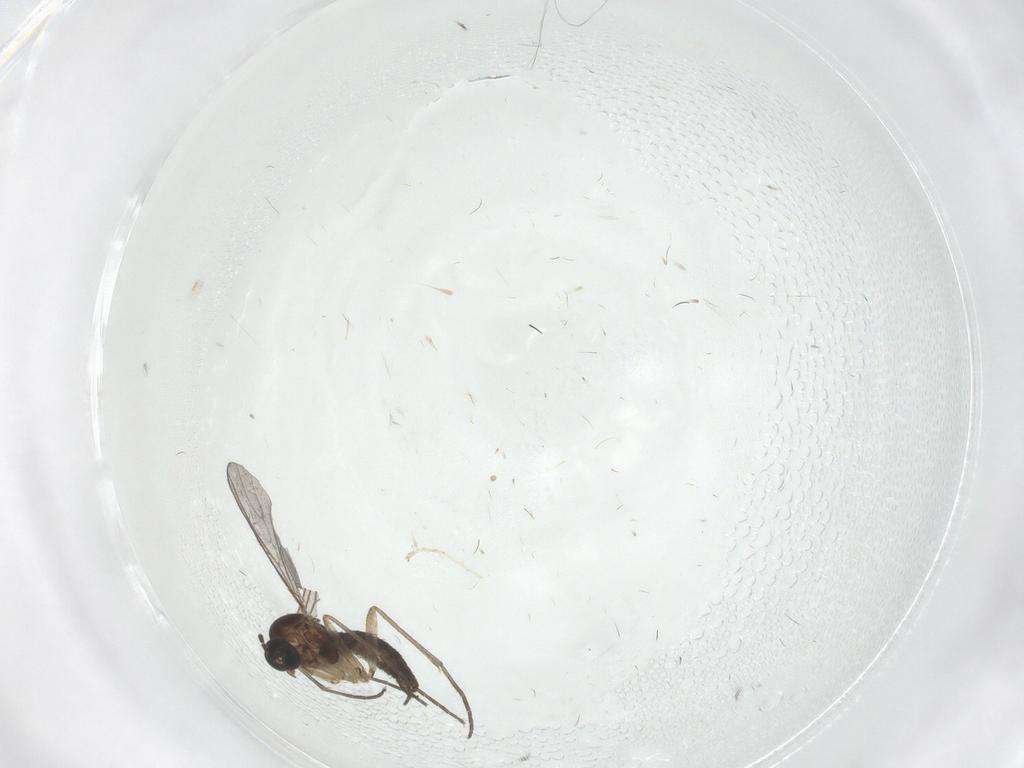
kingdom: Animalia
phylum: Arthropoda
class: Insecta
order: Diptera
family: Sciaridae
